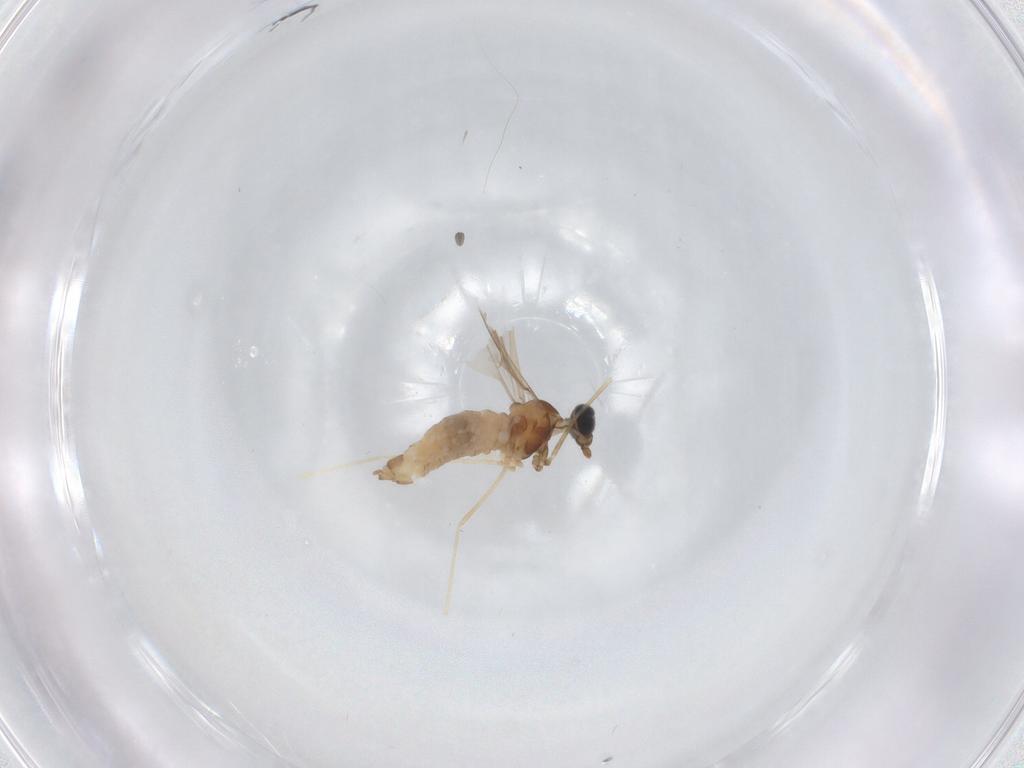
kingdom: Animalia
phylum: Arthropoda
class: Insecta
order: Diptera
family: Cecidomyiidae
